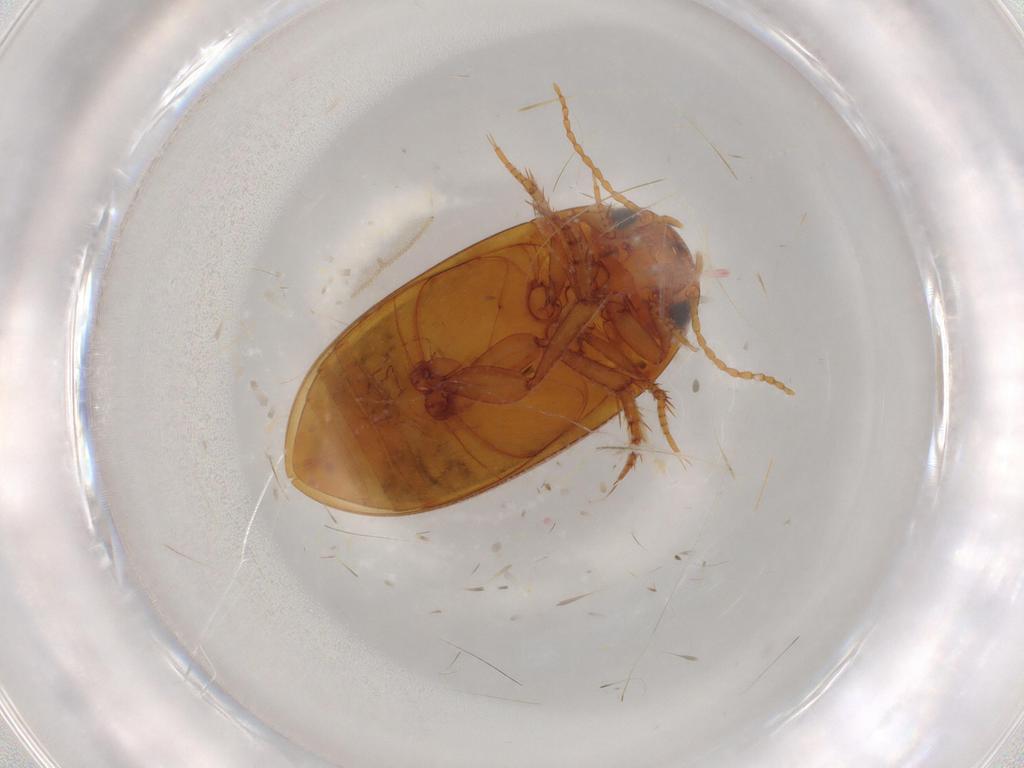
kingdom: Animalia
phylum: Arthropoda
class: Insecta
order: Coleoptera
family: Dytiscidae
